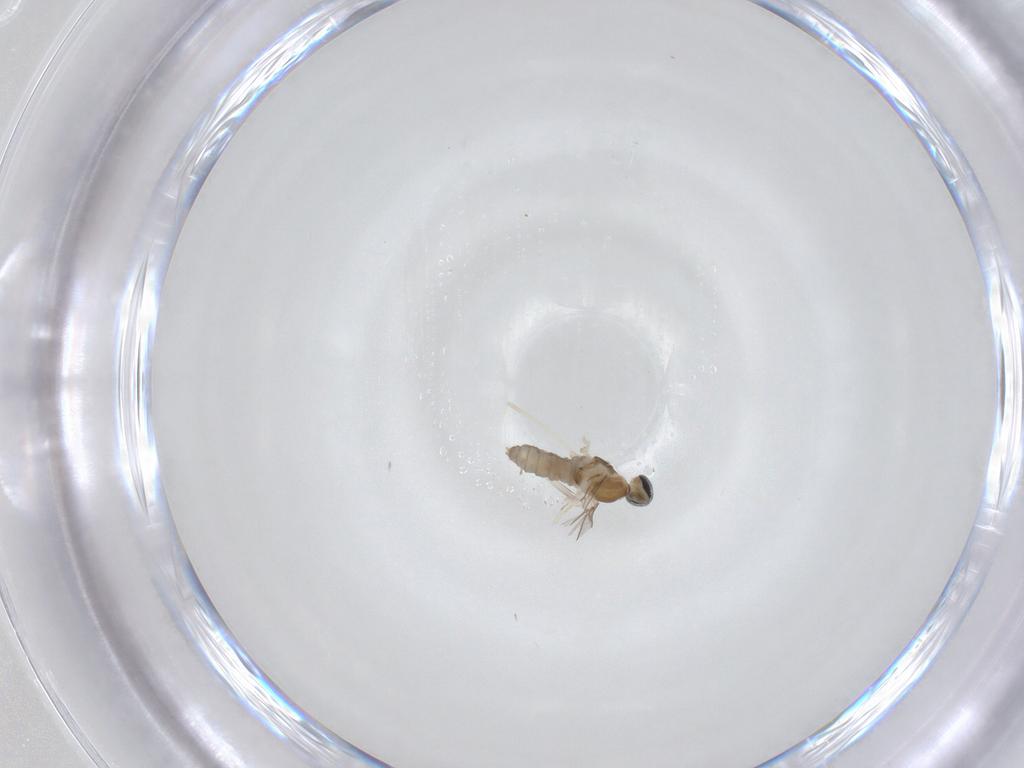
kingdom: Animalia
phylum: Arthropoda
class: Insecta
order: Diptera
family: Cecidomyiidae
